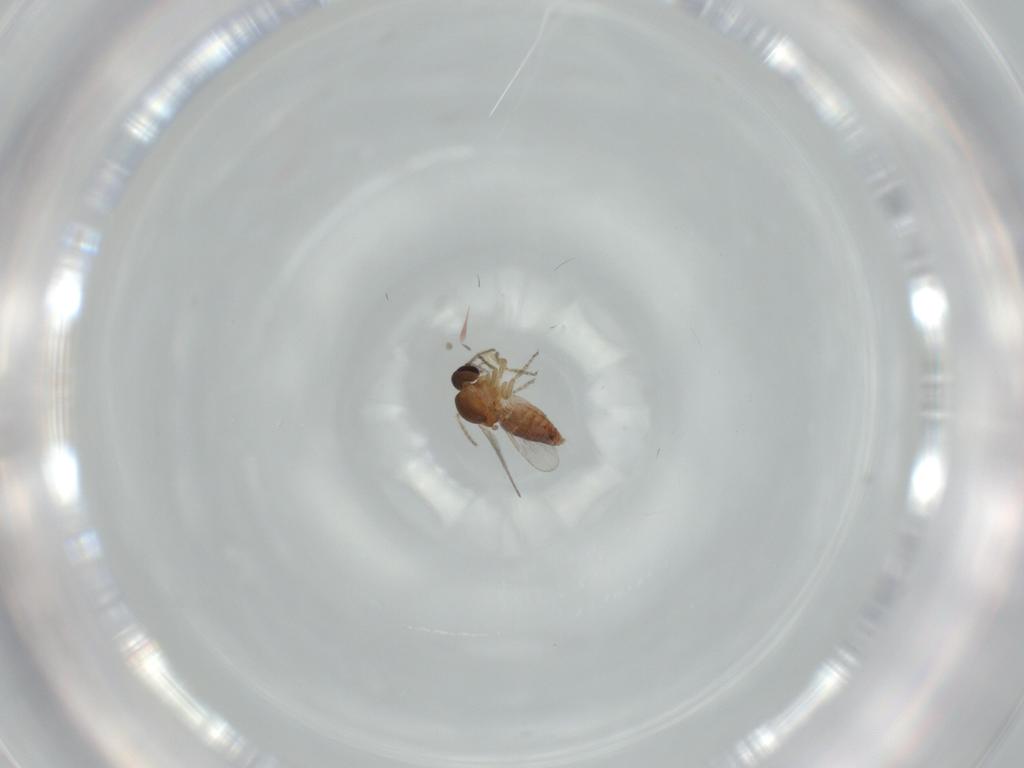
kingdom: Animalia
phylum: Arthropoda
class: Insecta
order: Diptera
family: Ceratopogonidae
